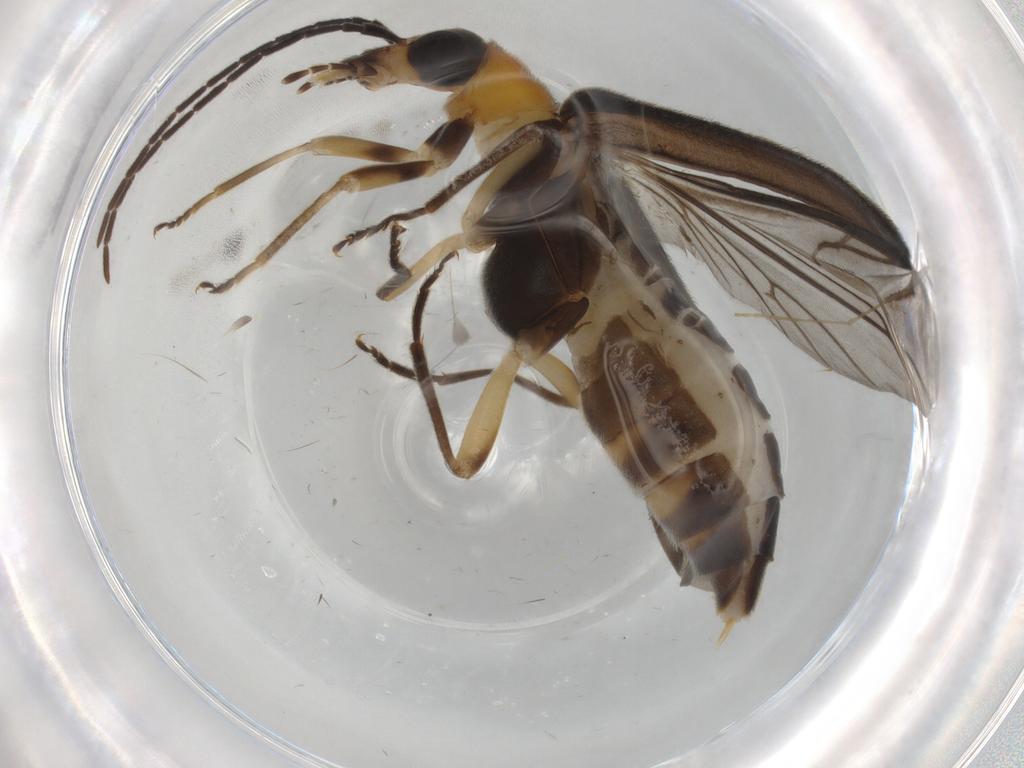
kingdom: Animalia
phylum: Arthropoda
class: Insecta
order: Coleoptera
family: Oedemeridae
